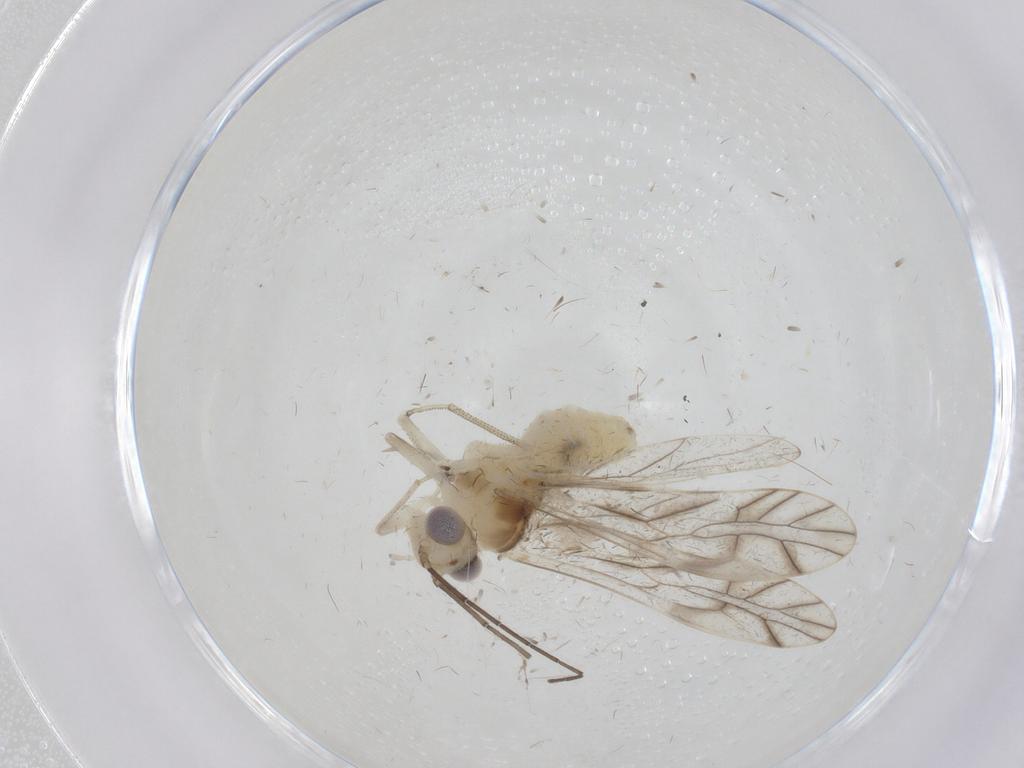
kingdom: Animalia
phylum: Arthropoda
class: Insecta
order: Psocodea
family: Caeciliusidae
